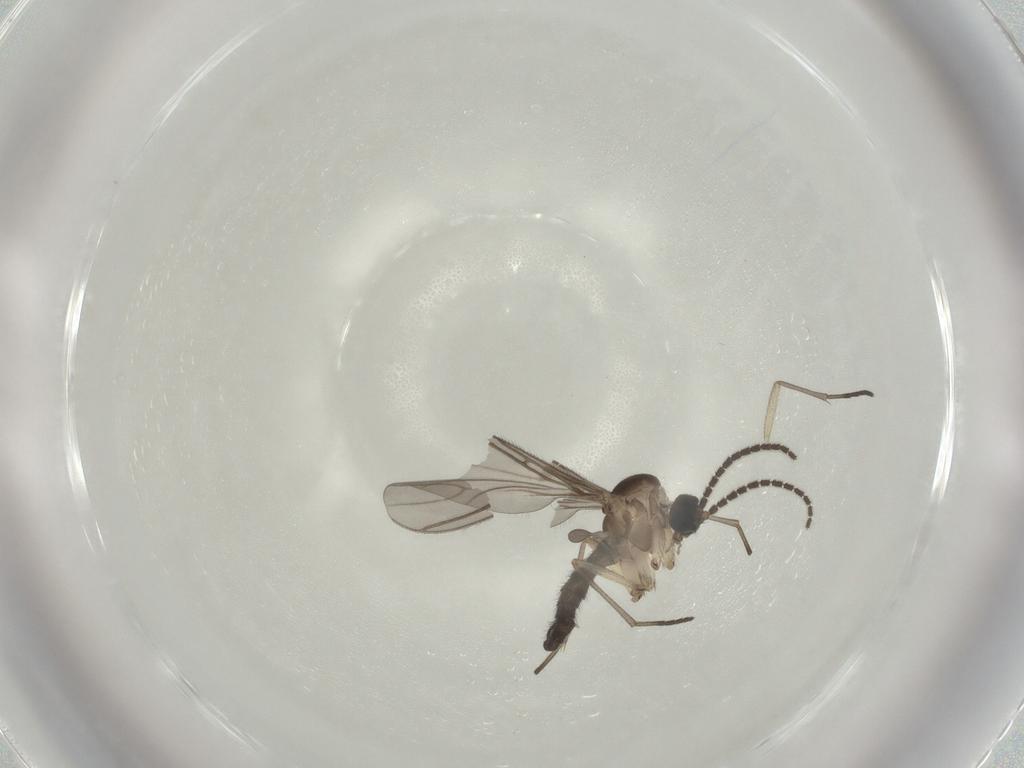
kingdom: Animalia
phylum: Arthropoda
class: Insecta
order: Diptera
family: Sciaridae
